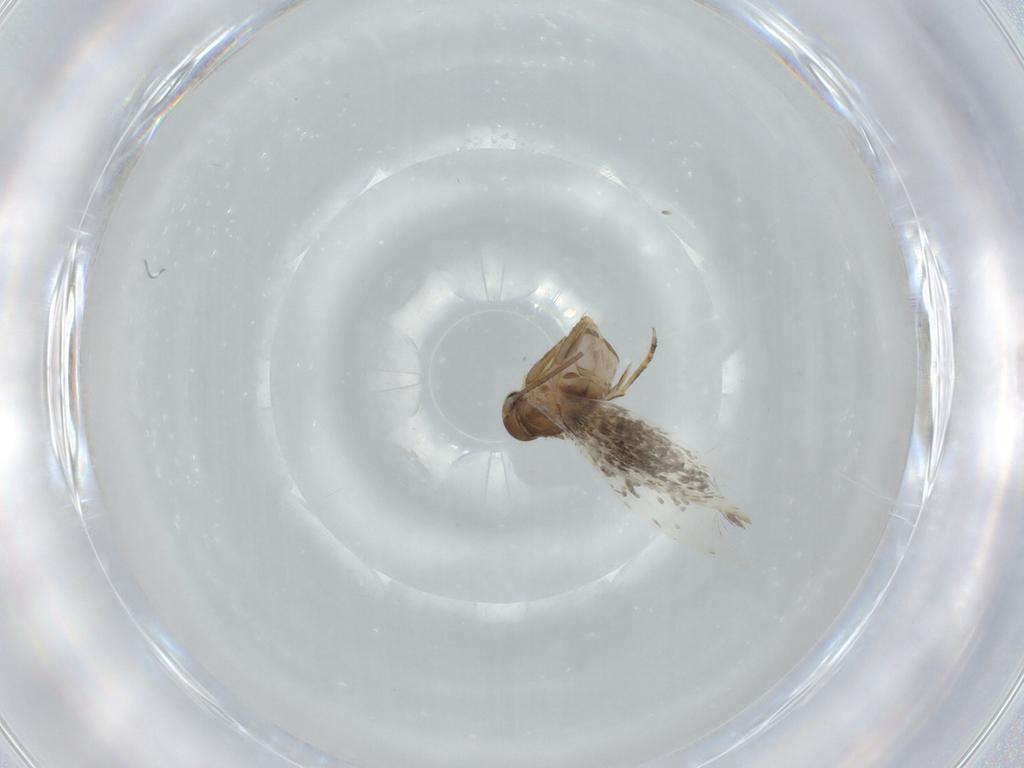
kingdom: Animalia
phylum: Arthropoda
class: Insecta
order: Lepidoptera
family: Elachistidae
